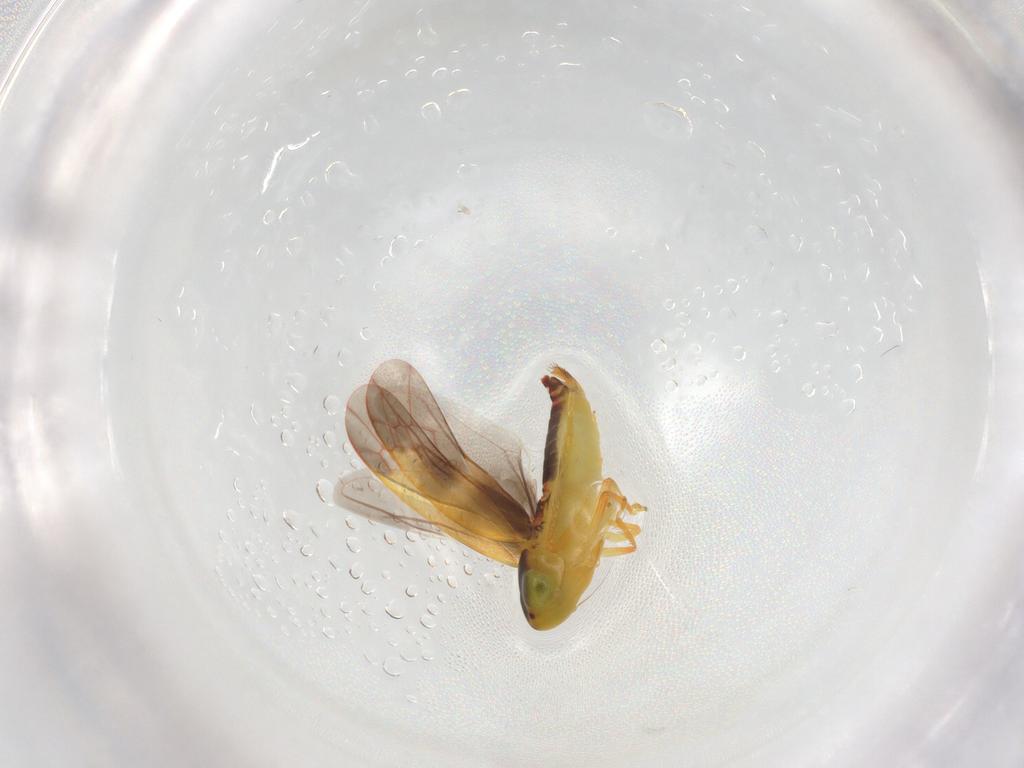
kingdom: Animalia
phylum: Arthropoda
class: Insecta
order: Hemiptera
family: Cicadellidae
